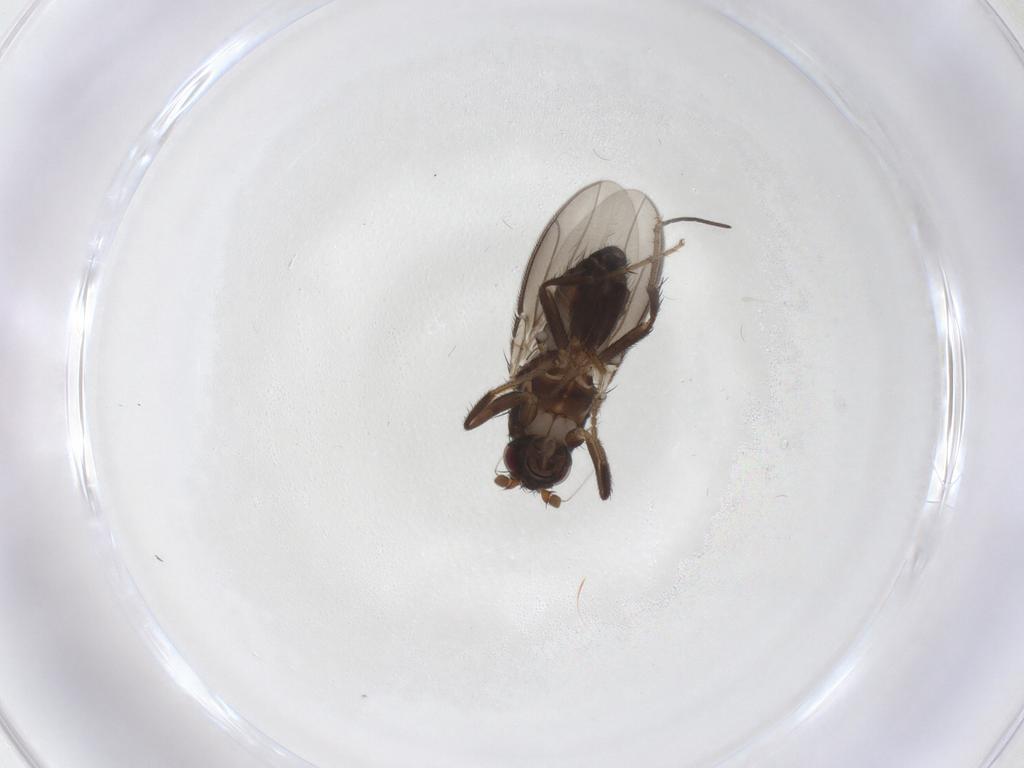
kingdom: Animalia
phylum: Arthropoda
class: Insecta
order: Diptera
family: Sphaeroceridae
